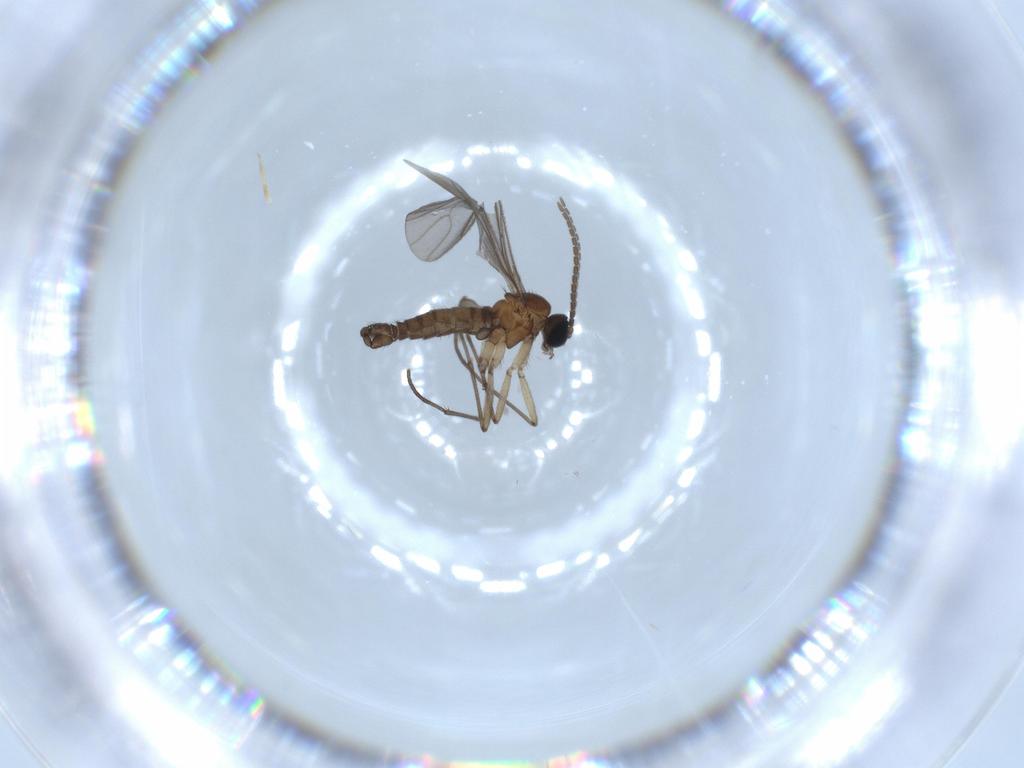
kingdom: Animalia
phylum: Arthropoda
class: Insecta
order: Diptera
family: Sciaridae
